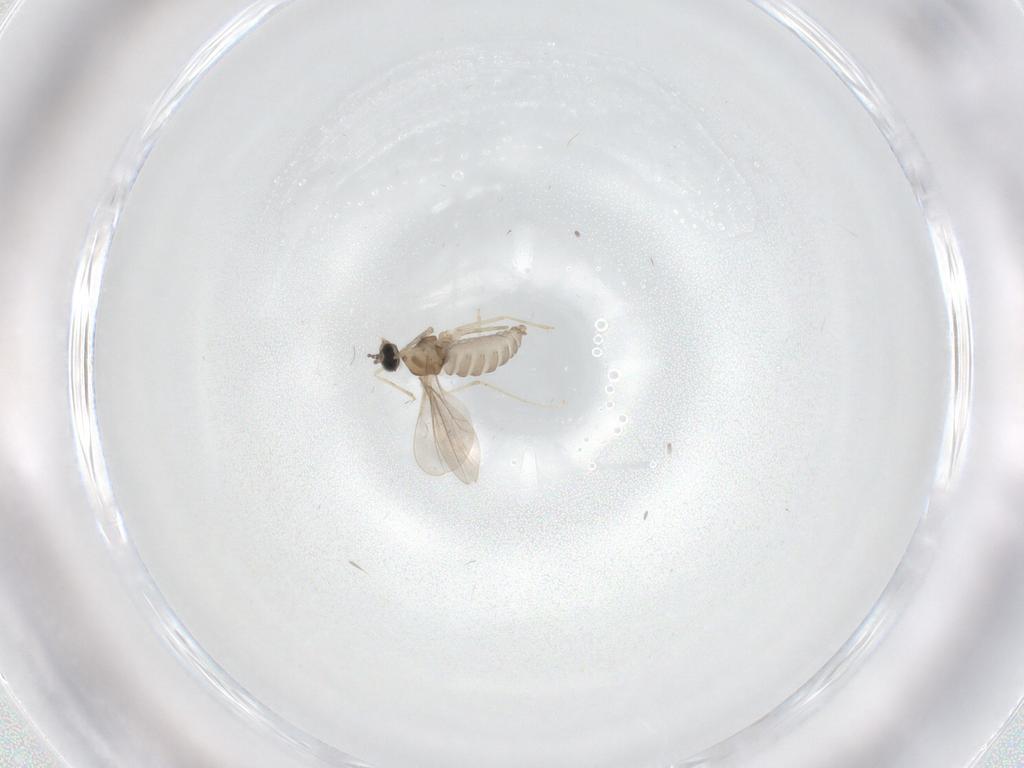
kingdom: Animalia
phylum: Arthropoda
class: Insecta
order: Diptera
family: Cecidomyiidae
